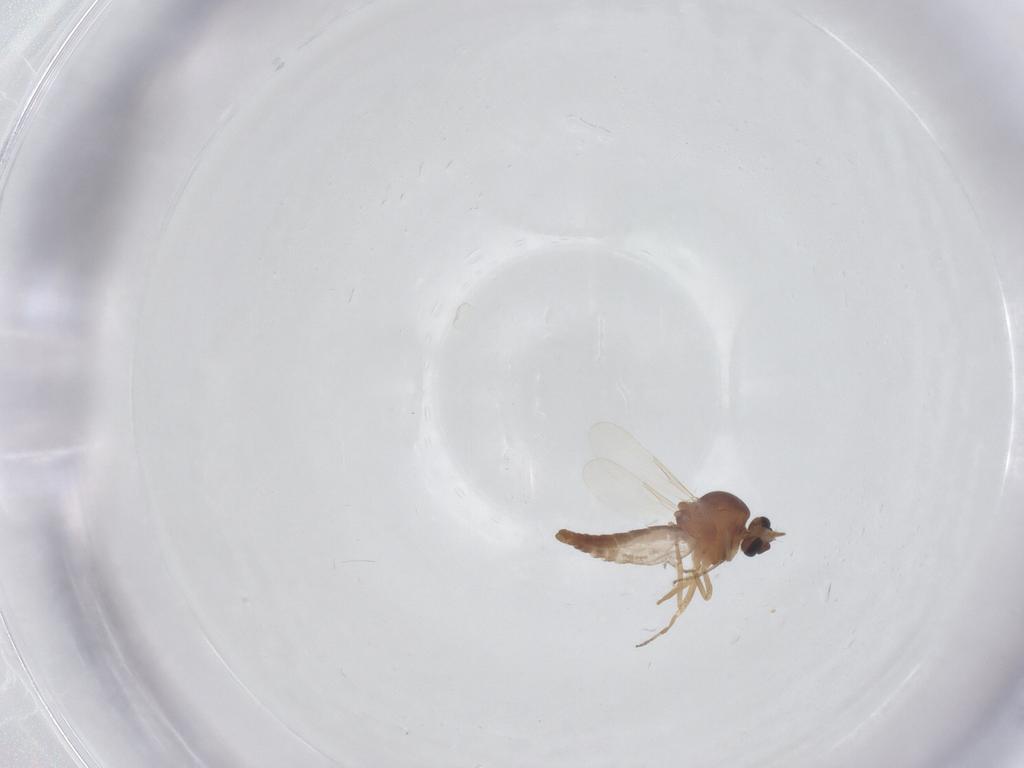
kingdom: Animalia
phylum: Arthropoda
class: Insecta
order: Diptera
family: Ceratopogonidae
